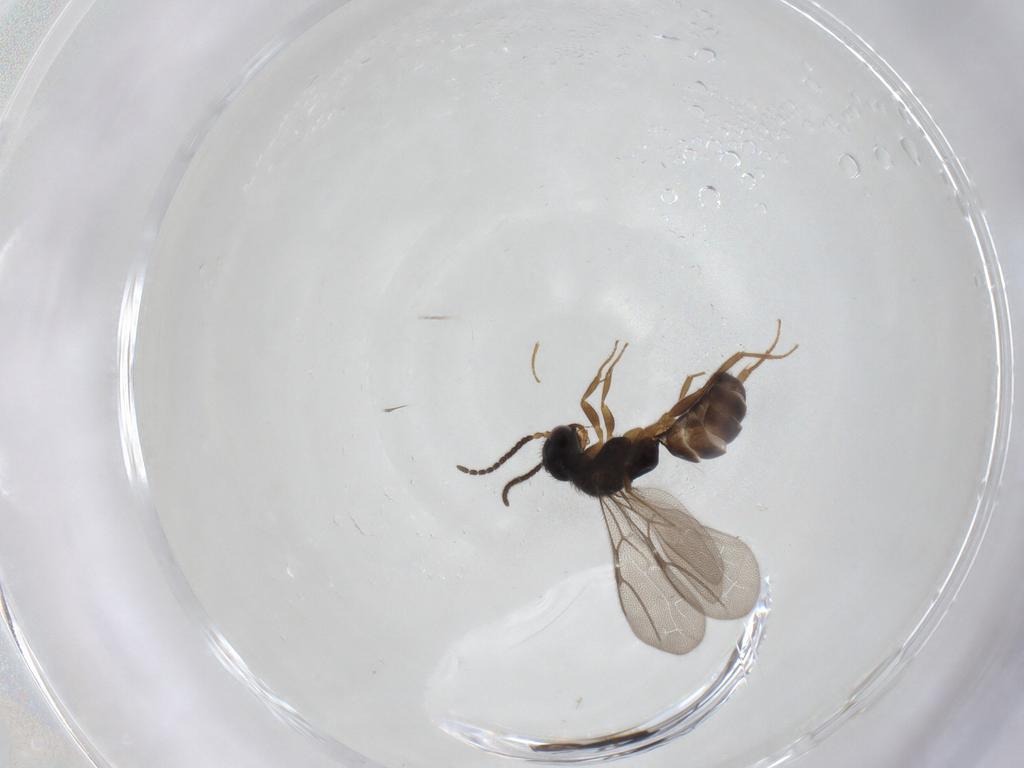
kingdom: Animalia
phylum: Arthropoda
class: Insecta
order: Hymenoptera
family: Bethylidae
